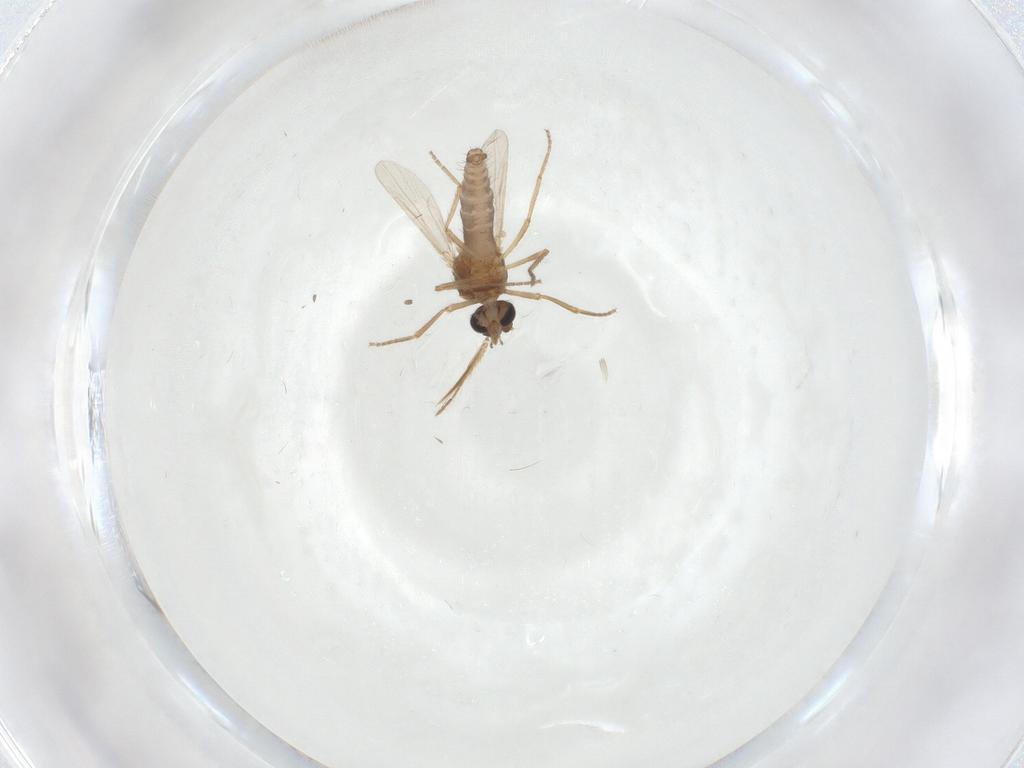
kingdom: Animalia
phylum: Arthropoda
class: Insecta
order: Diptera
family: Ceratopogonidae
